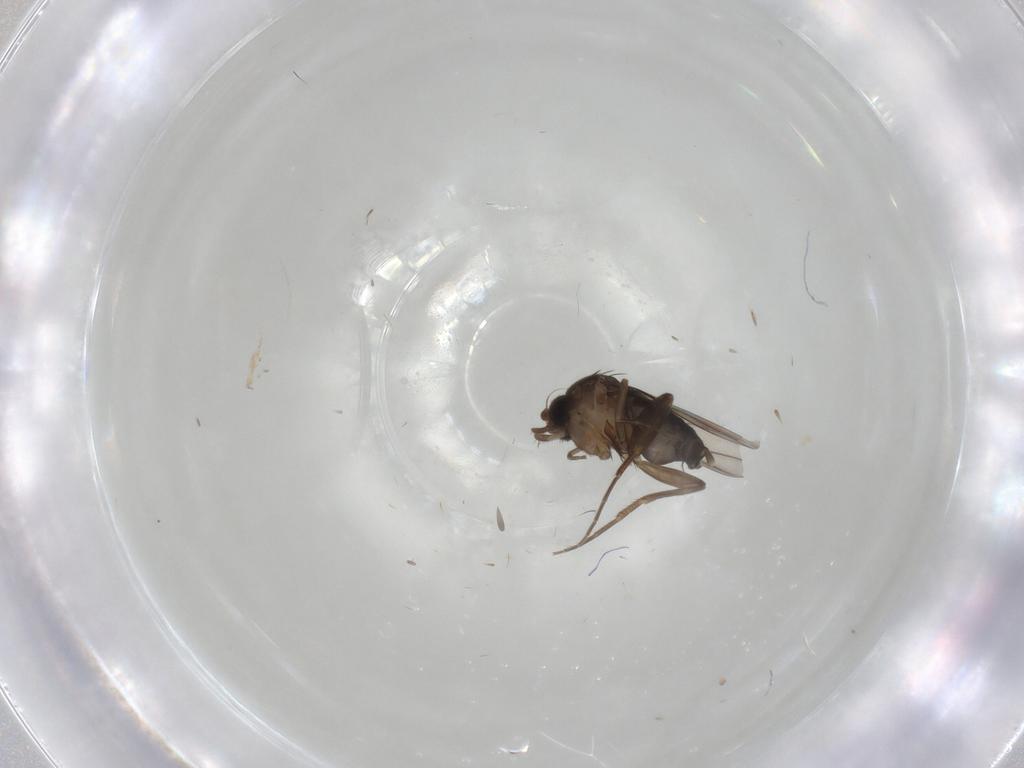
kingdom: Animalia
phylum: Arthropoda
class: Insecta
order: Diptera
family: Phoridae
